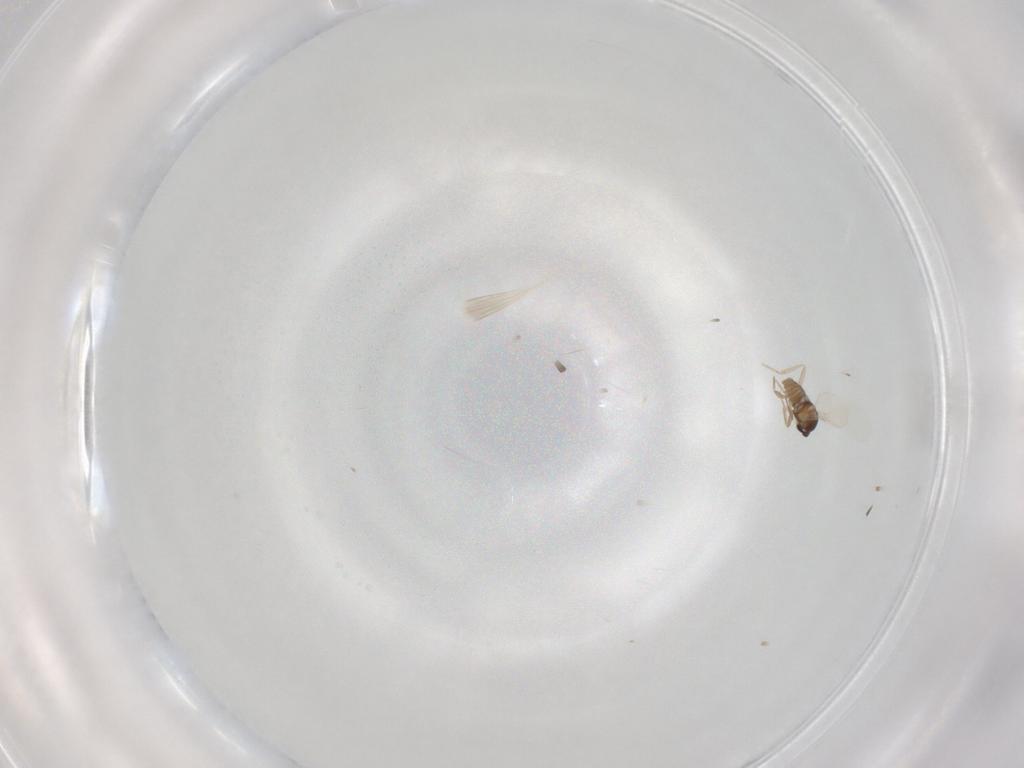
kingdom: Animalia
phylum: Arthropoda
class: Insecta
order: Diptera
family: Cecidomyiidae
